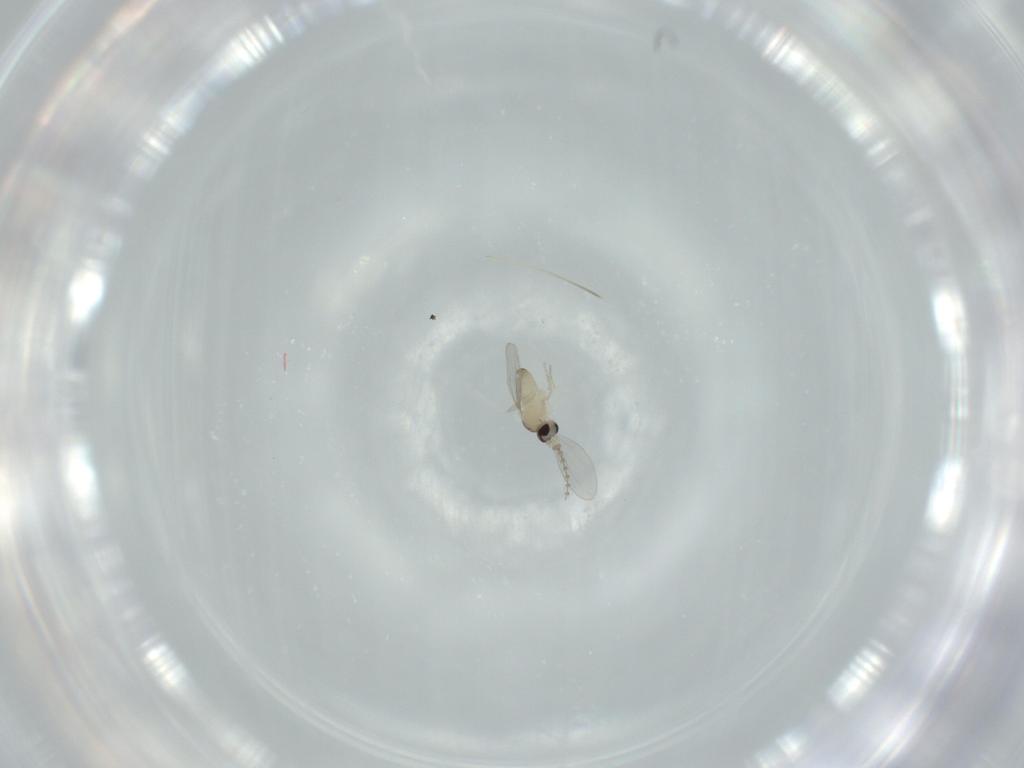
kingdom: Animalia
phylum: Arthropoda
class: Insecta
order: Diptera
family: Cecidomyiidae
